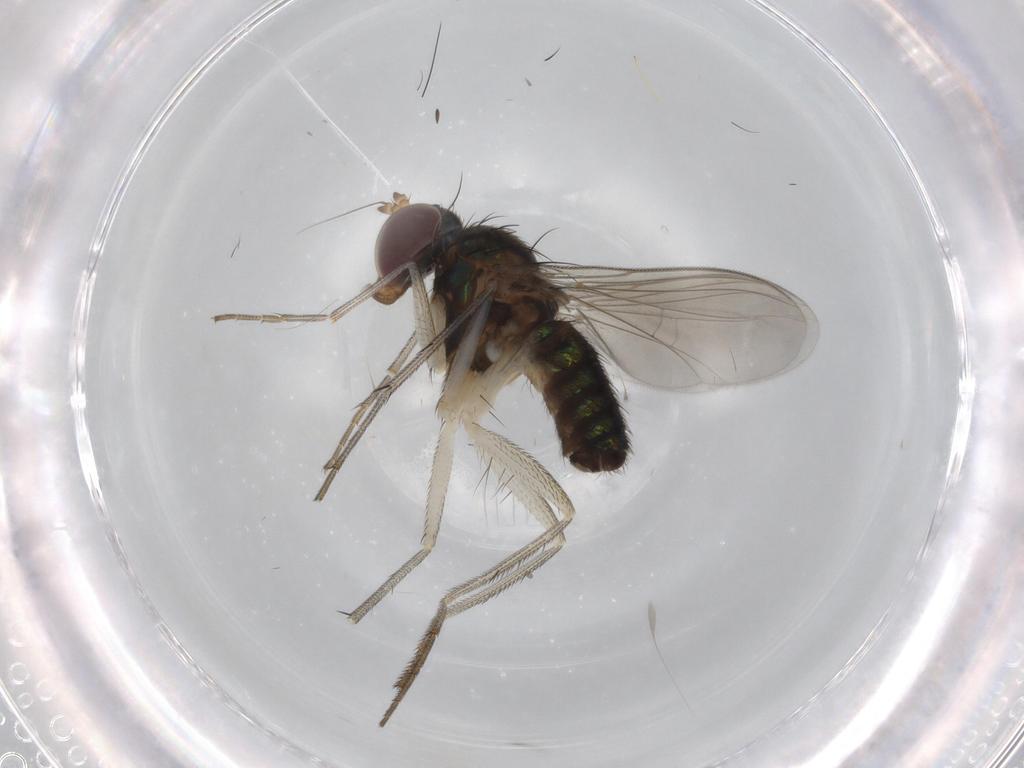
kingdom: Animalia
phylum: Arthropoda
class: Insecta
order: Diptera
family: Dolichopodidae
